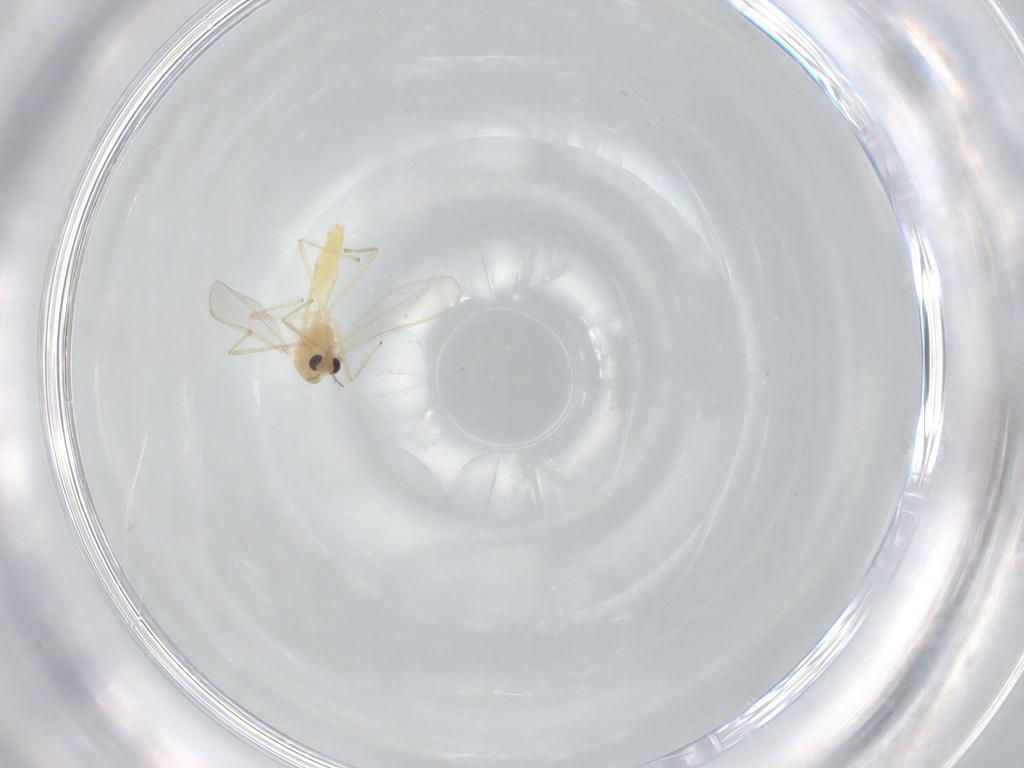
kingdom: Animalia
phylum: Arthropoda
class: Insecta
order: Diptera
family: Chironomidae
